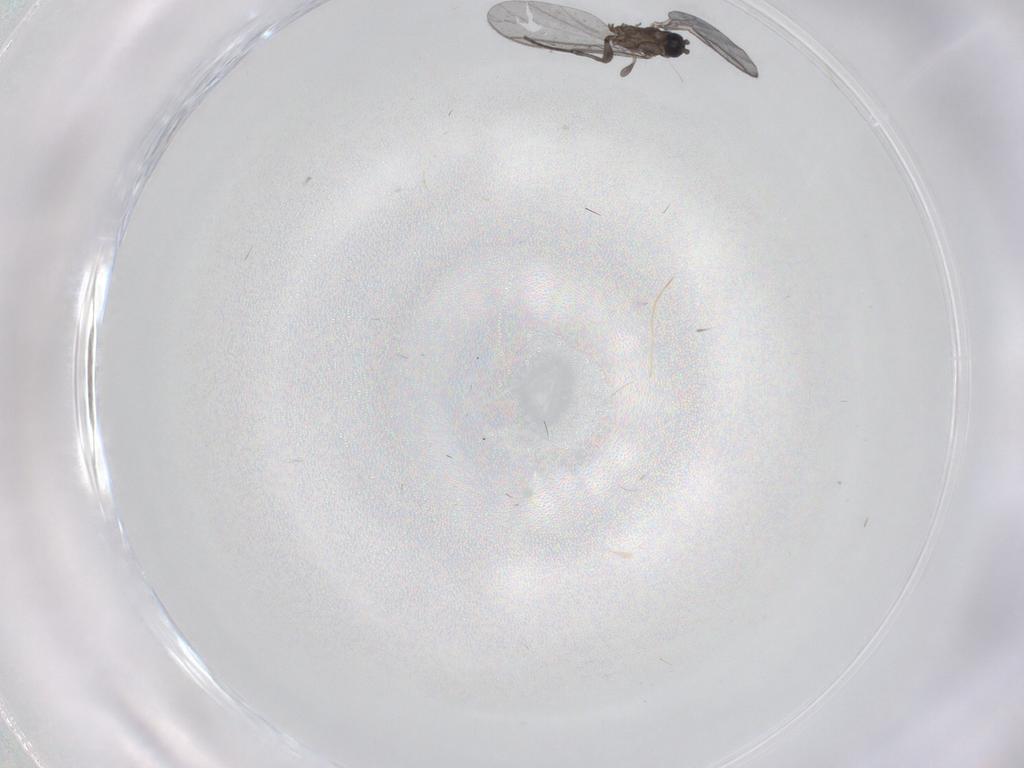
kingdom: Animalia
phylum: Arthropoda
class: Insecta
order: Diptera
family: Sciaridae
